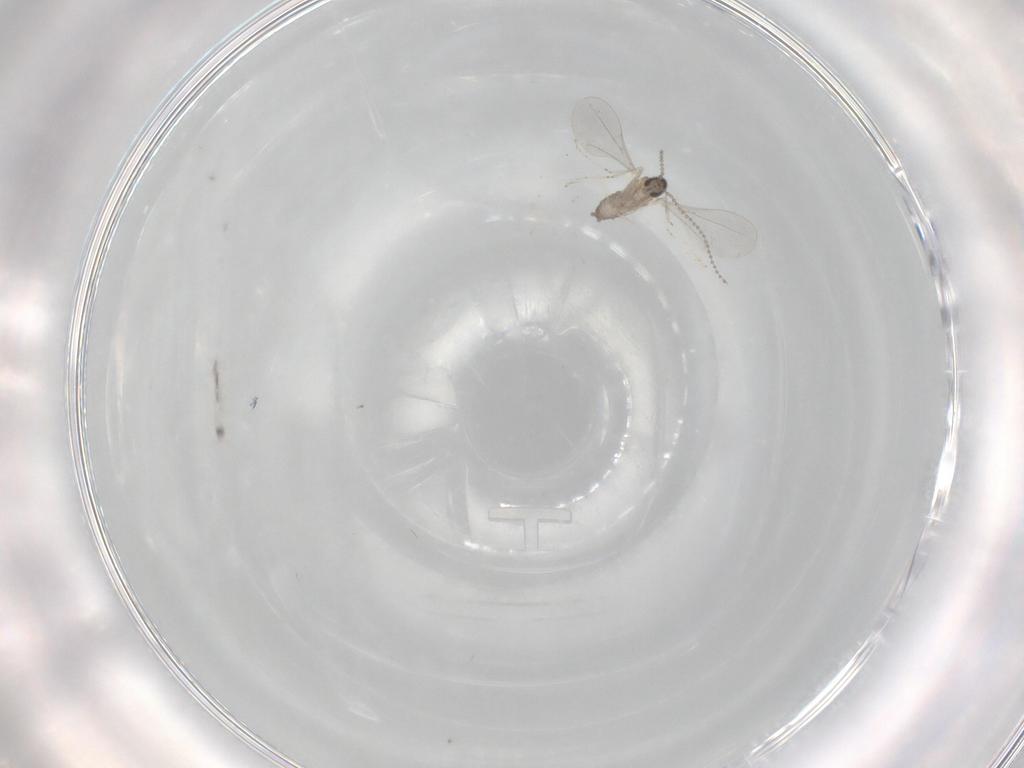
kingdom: Animalia
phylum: Arthropoda
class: Insecta
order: Diptera
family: Cecidomyiidae
